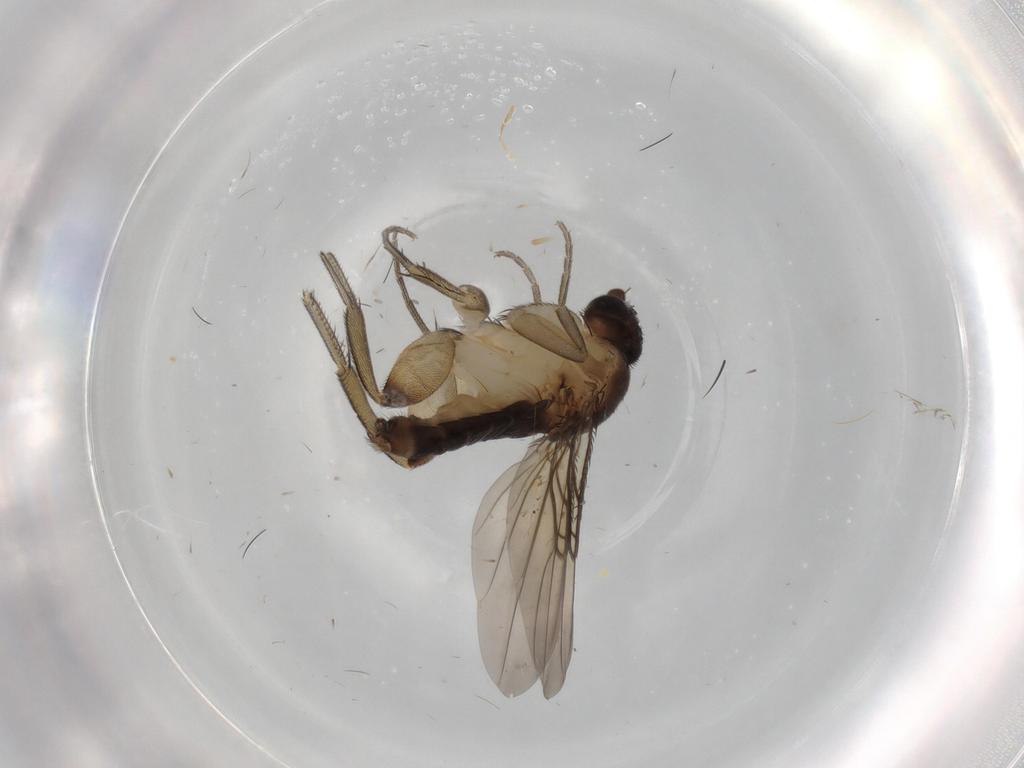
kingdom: Animalia
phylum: Arthropoda
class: Insecta
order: Diptera
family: Phoridae
